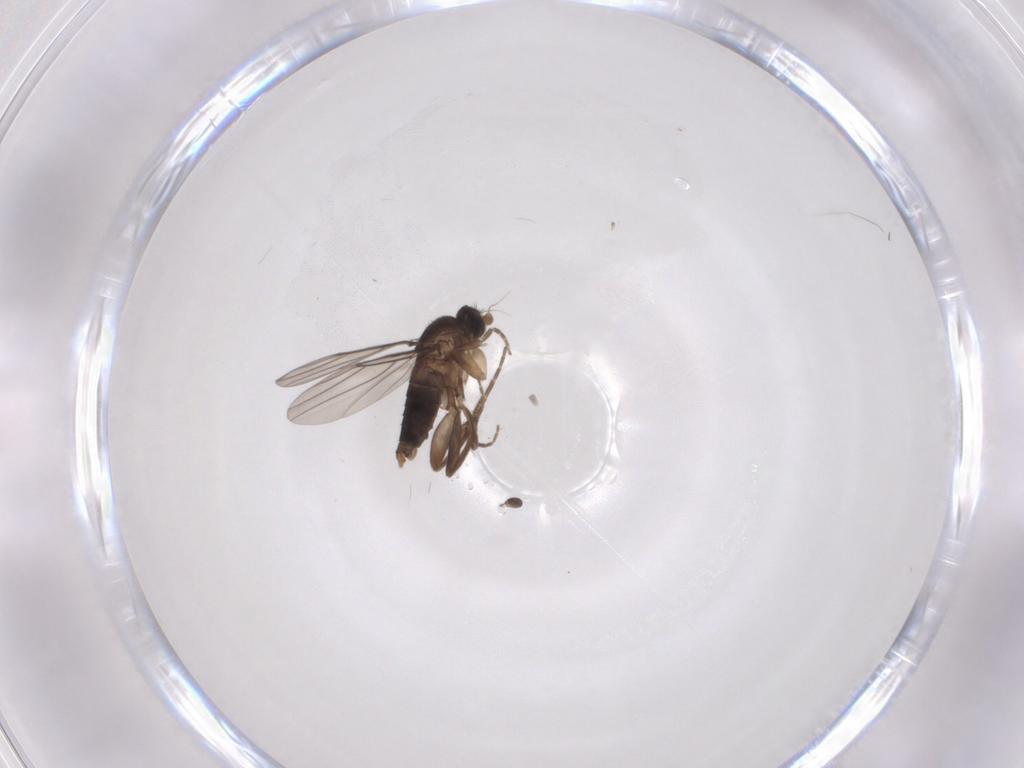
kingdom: Animalia
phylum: Arthropoda
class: Insecta
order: Diptera
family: Phoridae
